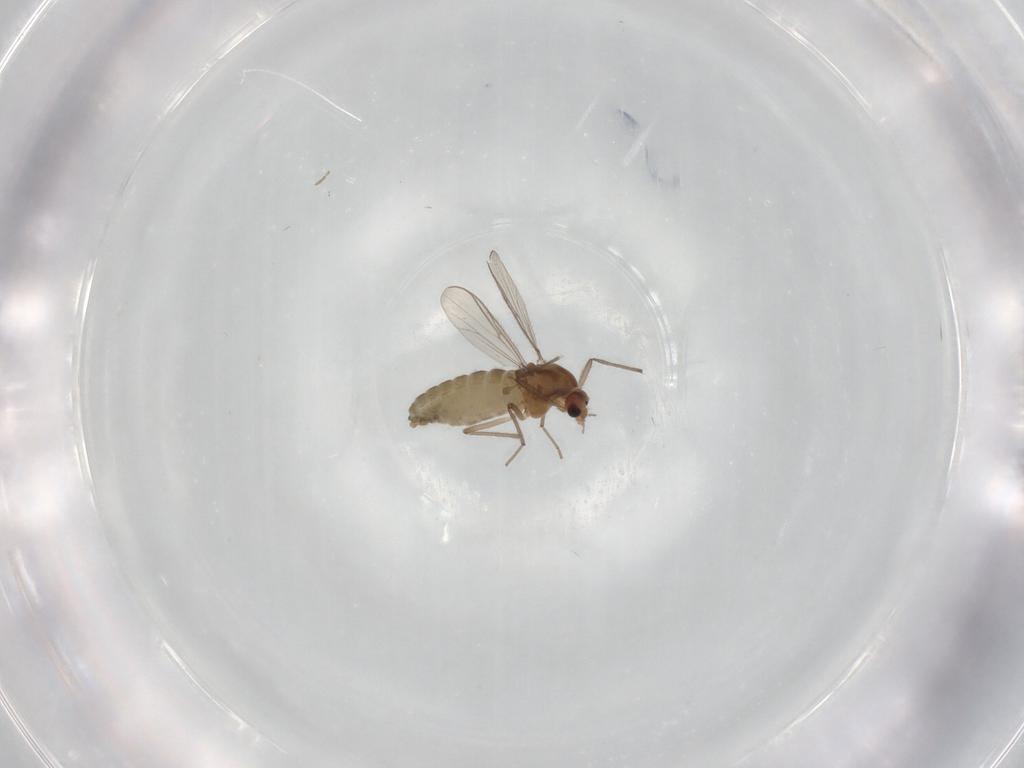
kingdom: Animalia
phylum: Arthropoda
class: Insecta
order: Diptera
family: Chironomidae
